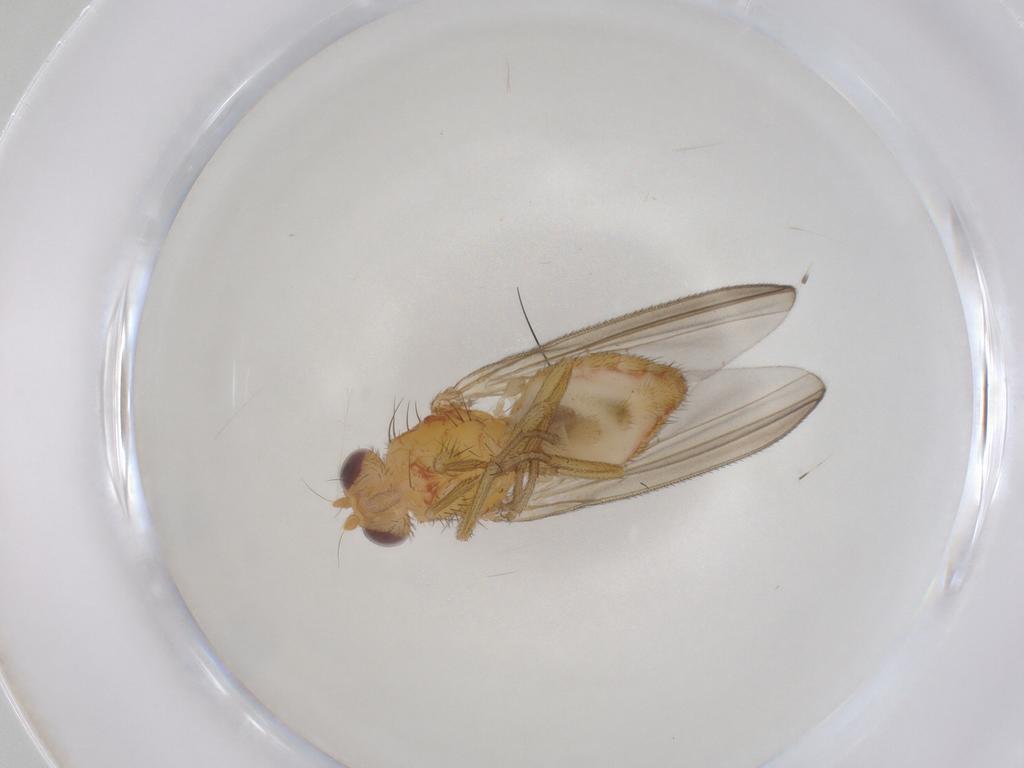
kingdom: Animalia
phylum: Arthropoda
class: Insecta
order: Diptera
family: Natalimyzidae
